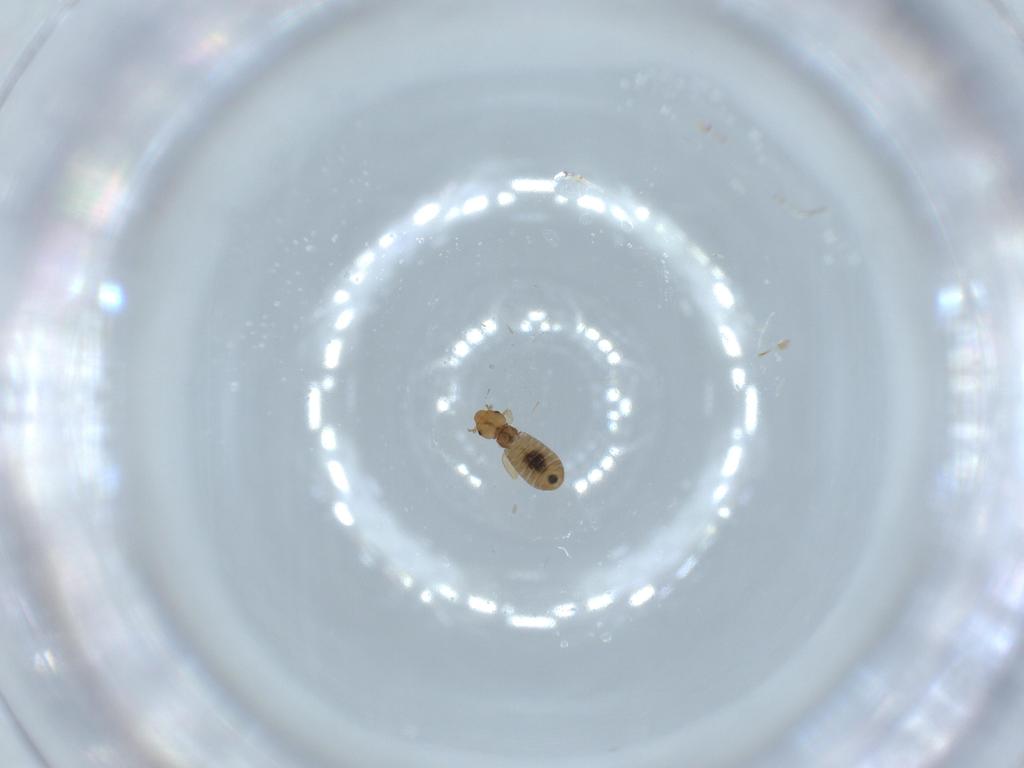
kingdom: Animalia
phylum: Arthropoda
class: Insecta
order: Psocodea
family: Liposcelididae
